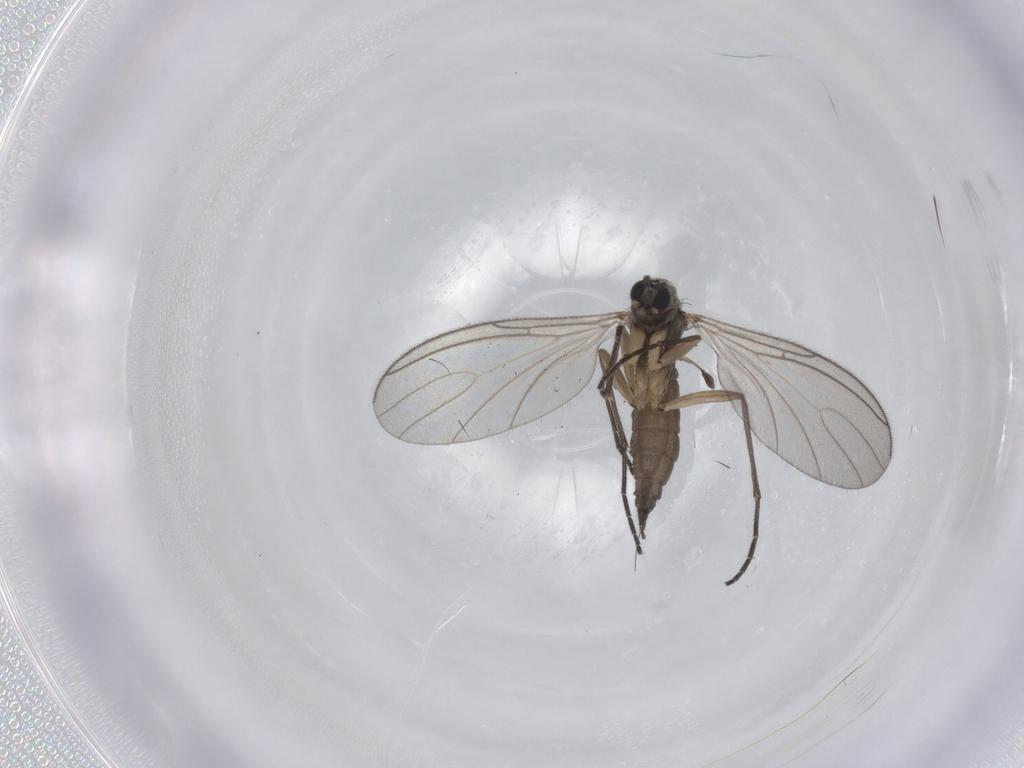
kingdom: Animalia
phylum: Arthropoda
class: Insecta
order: Diptera
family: Sciaridae
